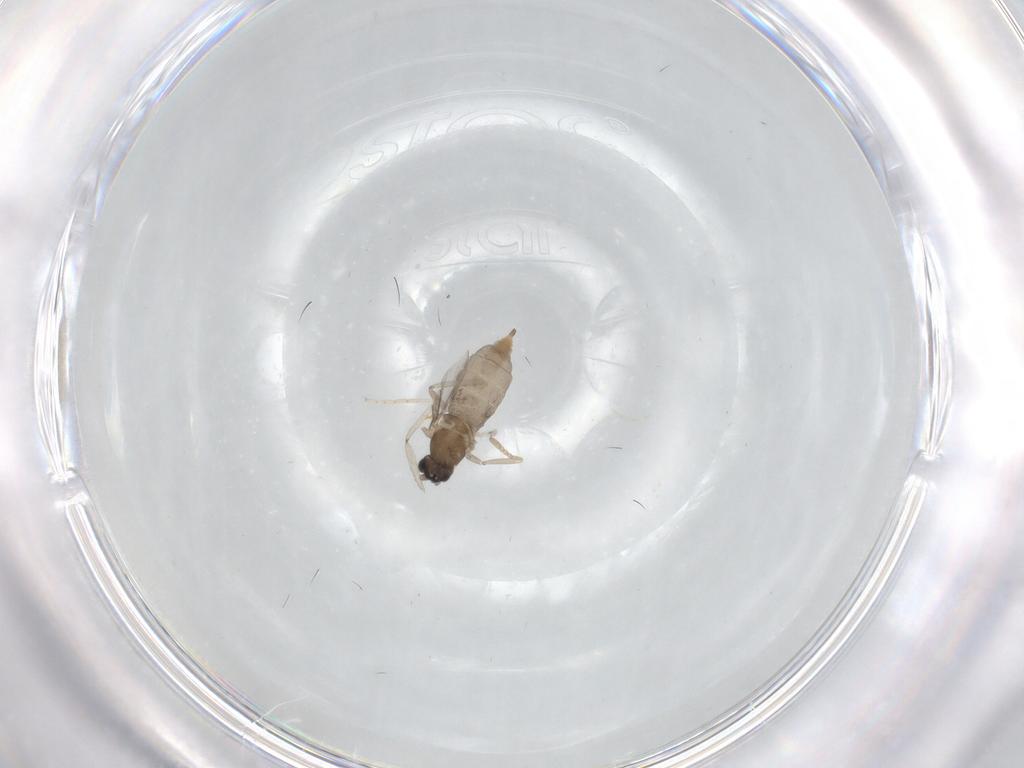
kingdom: Animalia
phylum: Arthropoda
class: Insecta
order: Diptera
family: Cecidomyiidae
